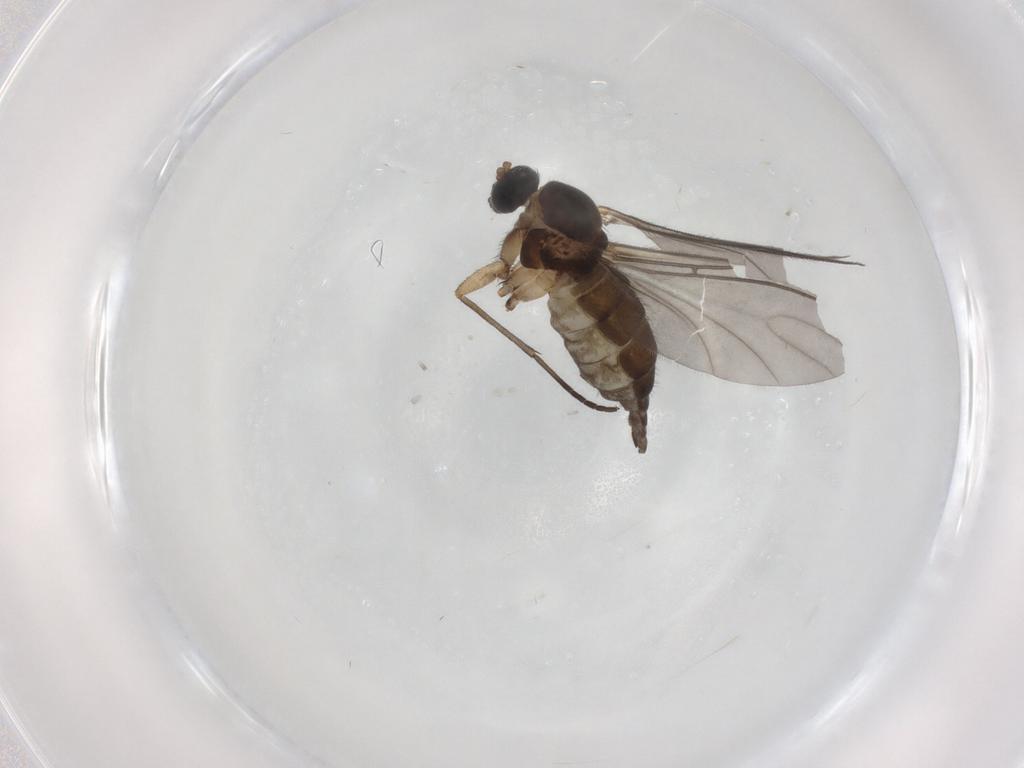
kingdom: Animalia
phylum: Arthropoda
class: Insecta
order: Diptera
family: Sciaridae
